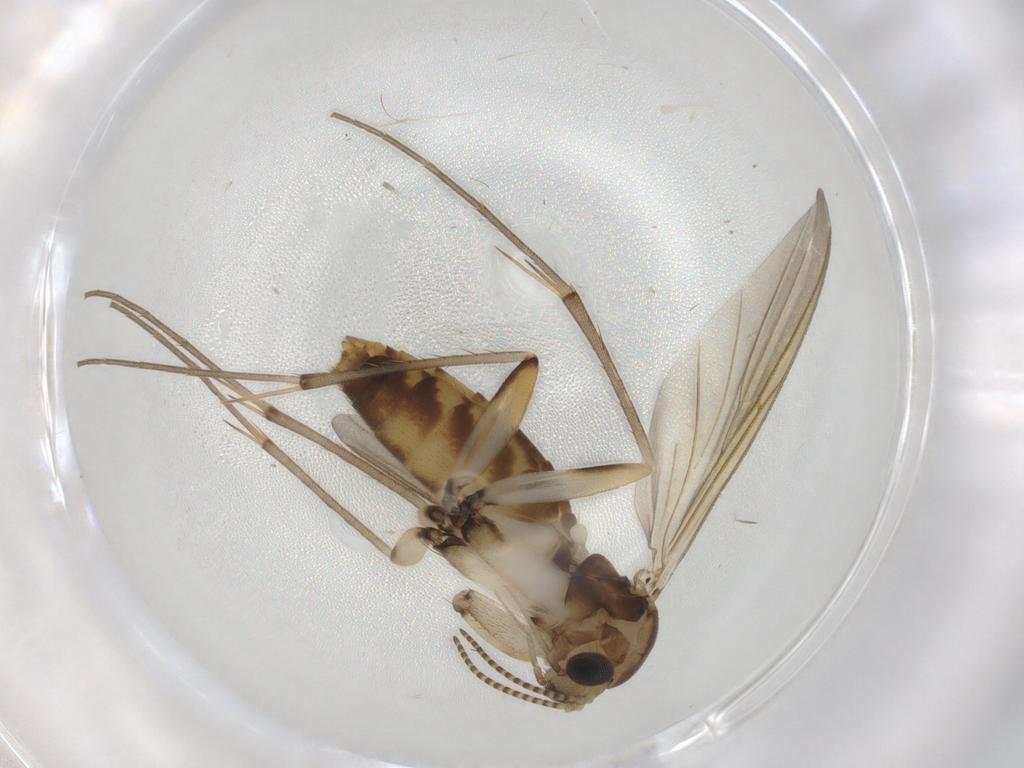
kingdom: Animalia
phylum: Arthropoda
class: Insecta
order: Diptera
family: Mycetophilidae
